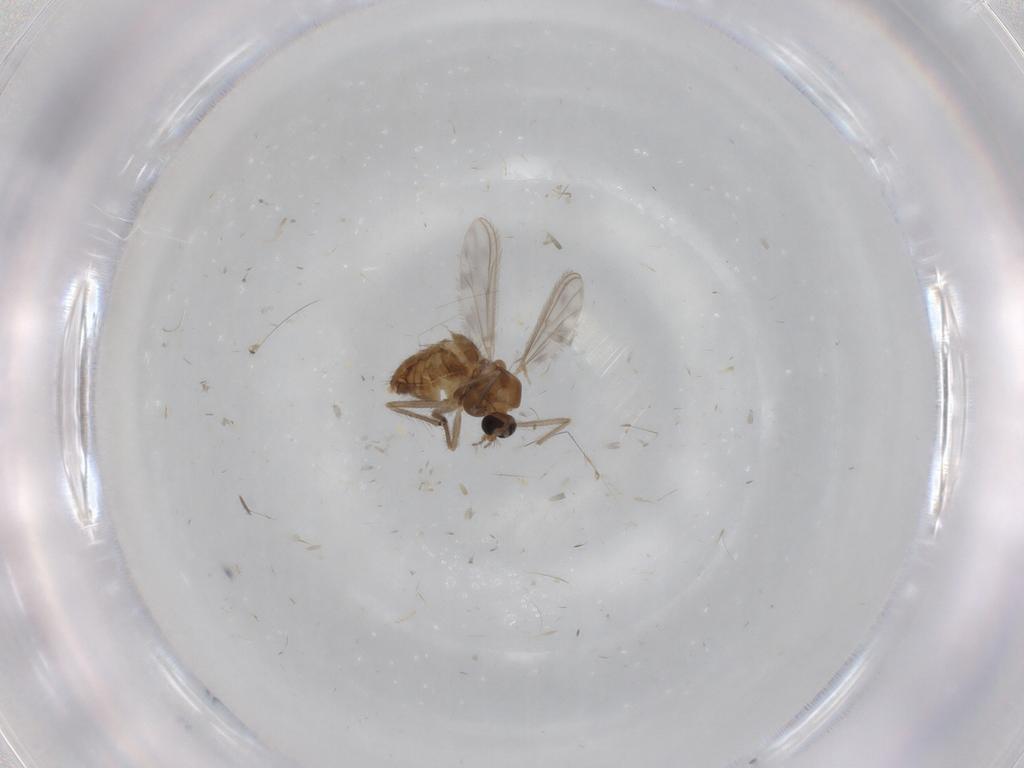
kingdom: Animalia
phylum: Arthropoda
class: Insecta
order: Diptera
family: Chironomidae
